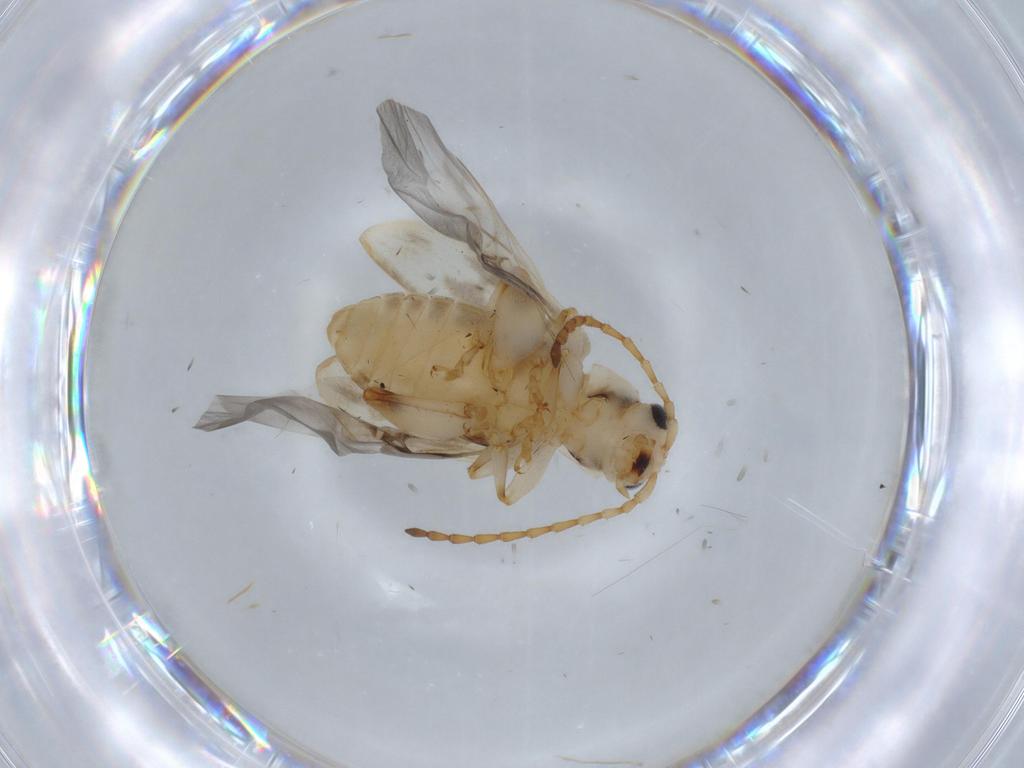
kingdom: Animalia
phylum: Arthropoda
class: Insecta
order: Coleoptera
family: Chrysomelidae
